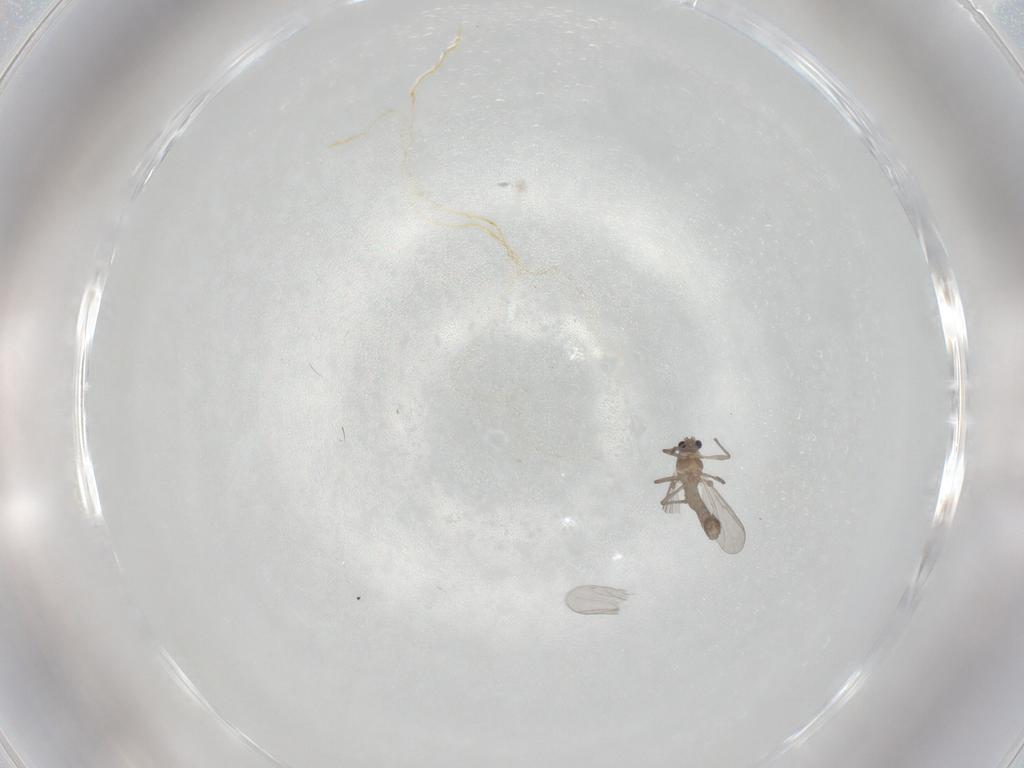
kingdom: Animalia
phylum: Arthropoda
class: Insecta
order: Diptera
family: Chironomidae
